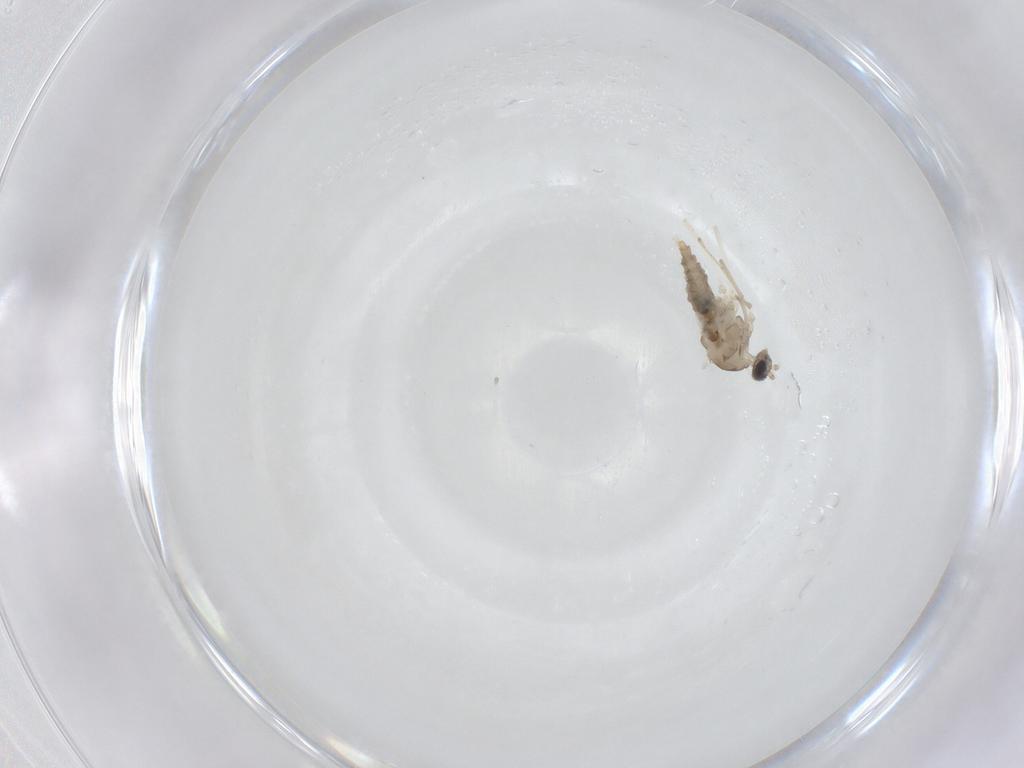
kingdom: Animalia
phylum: Arthropoda
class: Insecta
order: Diptera
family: Cecidomyiidae
